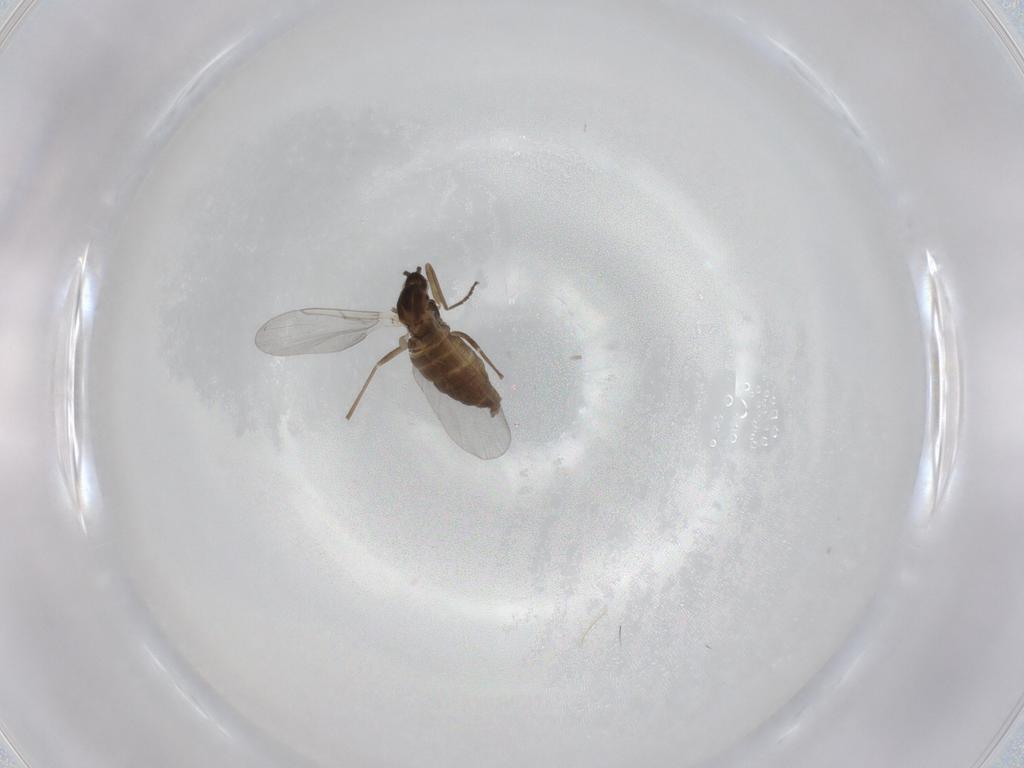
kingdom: Animalia
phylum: Arthropoda
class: Insecta
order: Diptera
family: Cecidomyiidae
